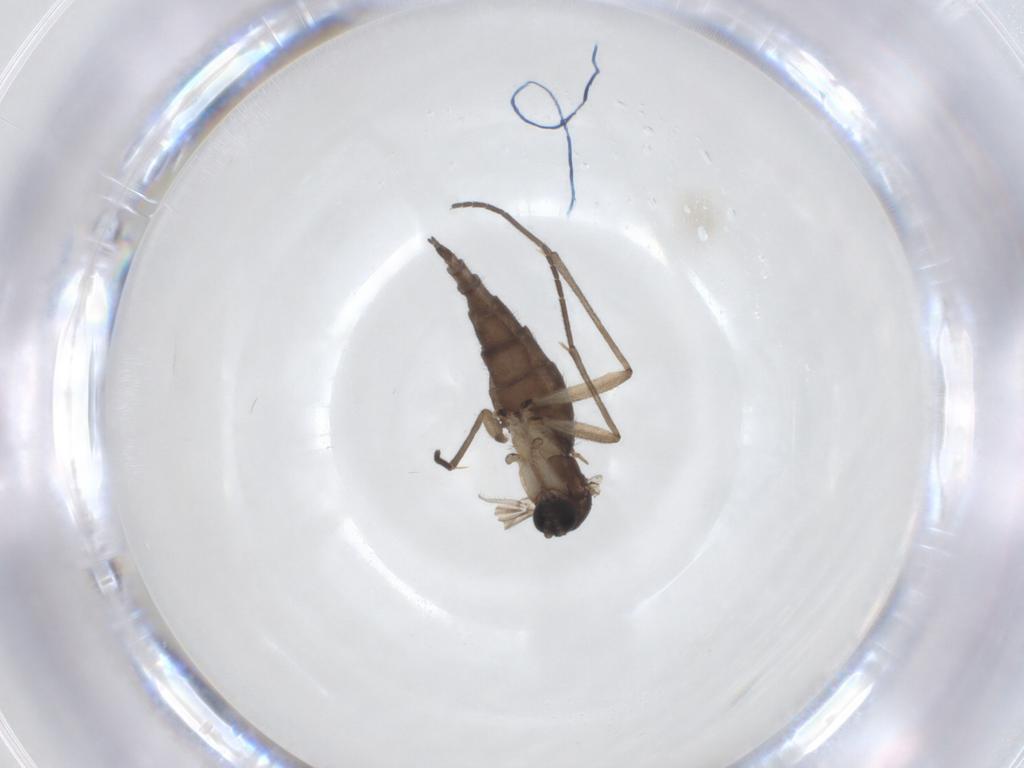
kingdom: Animalia
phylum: Arthropoda
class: Insecta
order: Diptera
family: Sciaridae
